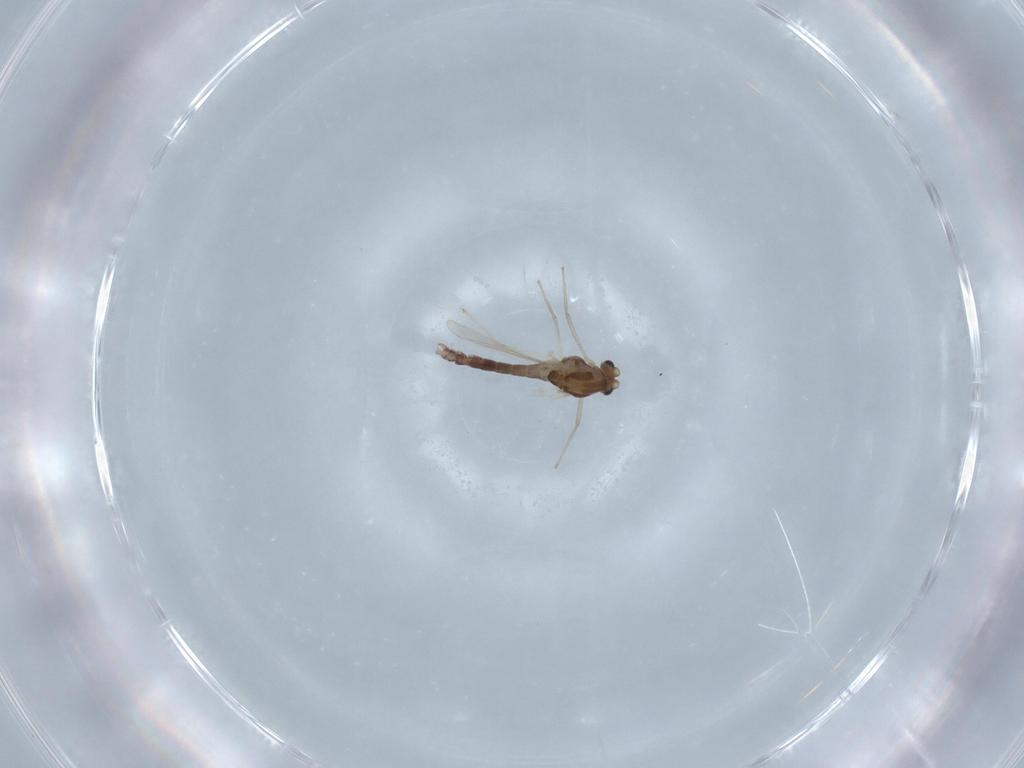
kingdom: Animalia
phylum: Arthropoda
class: Insecta
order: Diptera
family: Chironomidae
